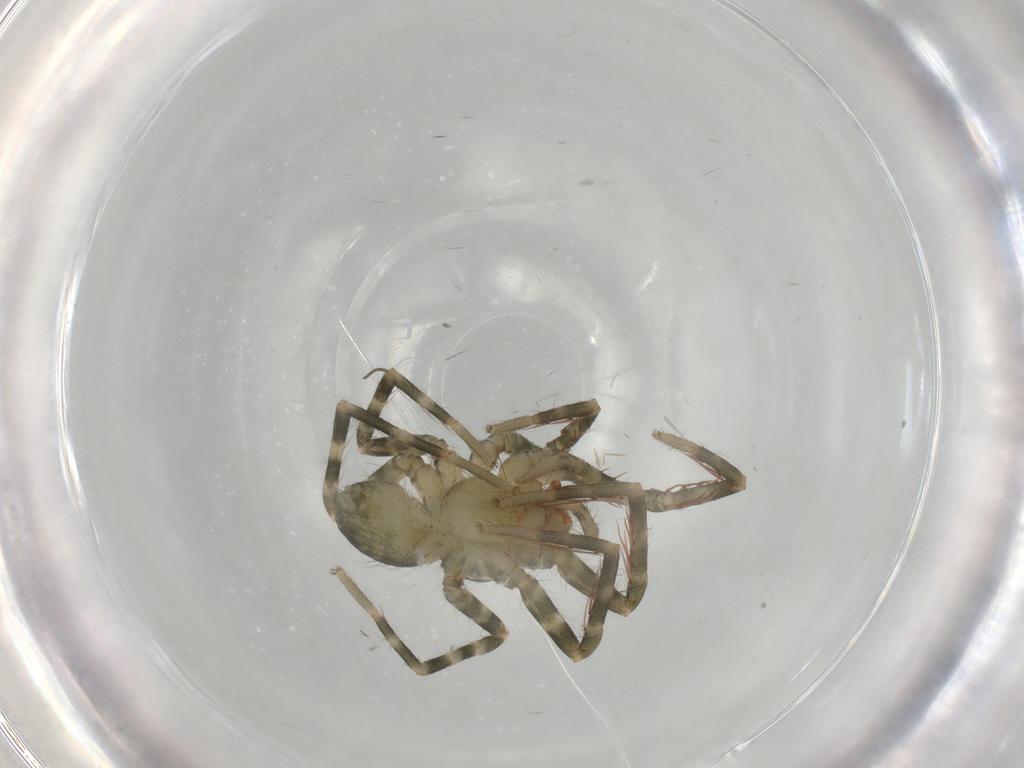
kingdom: Animalia
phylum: Arthropoda
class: Arachnida
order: Araneae
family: Ctenidae
